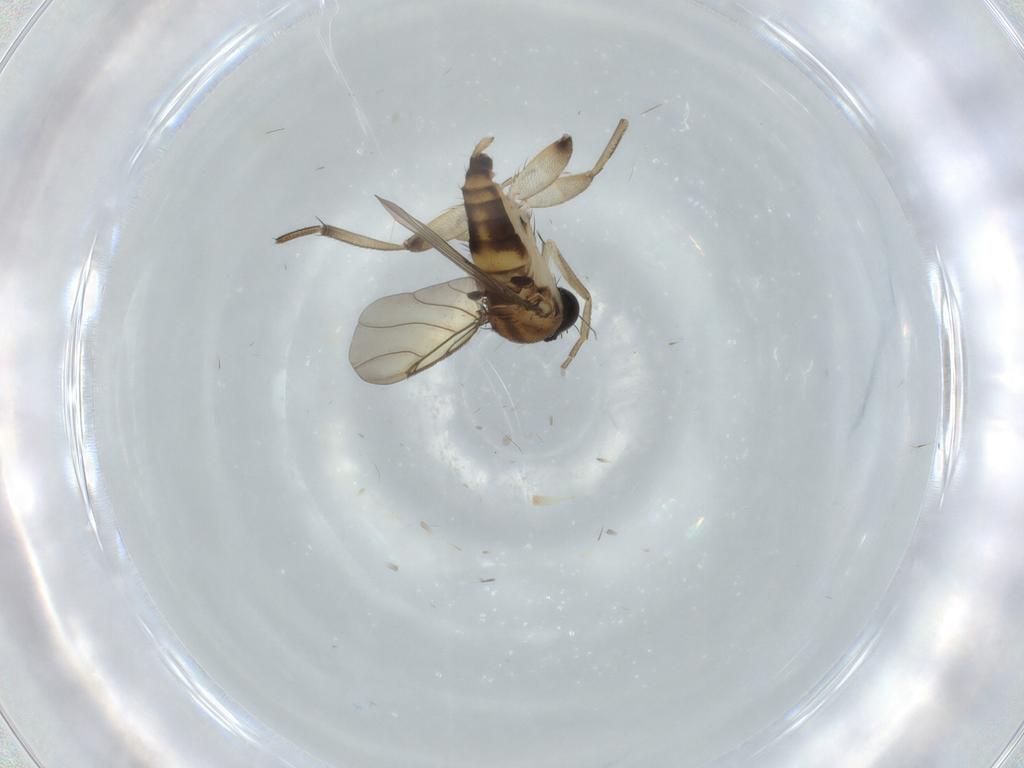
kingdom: Animalia
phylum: Arthropoda
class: Insecta
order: Diptera
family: Phoridae
